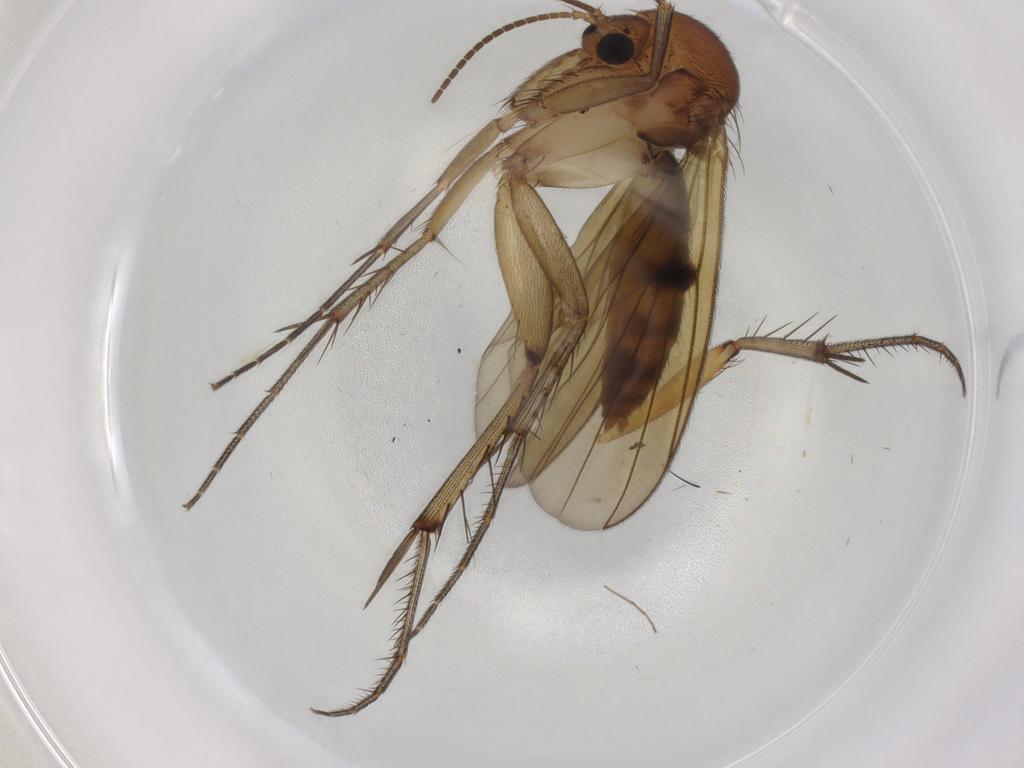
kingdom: Animalia
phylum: Arthropoda
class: Insecta
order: Diptera
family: Mycetophilidae
